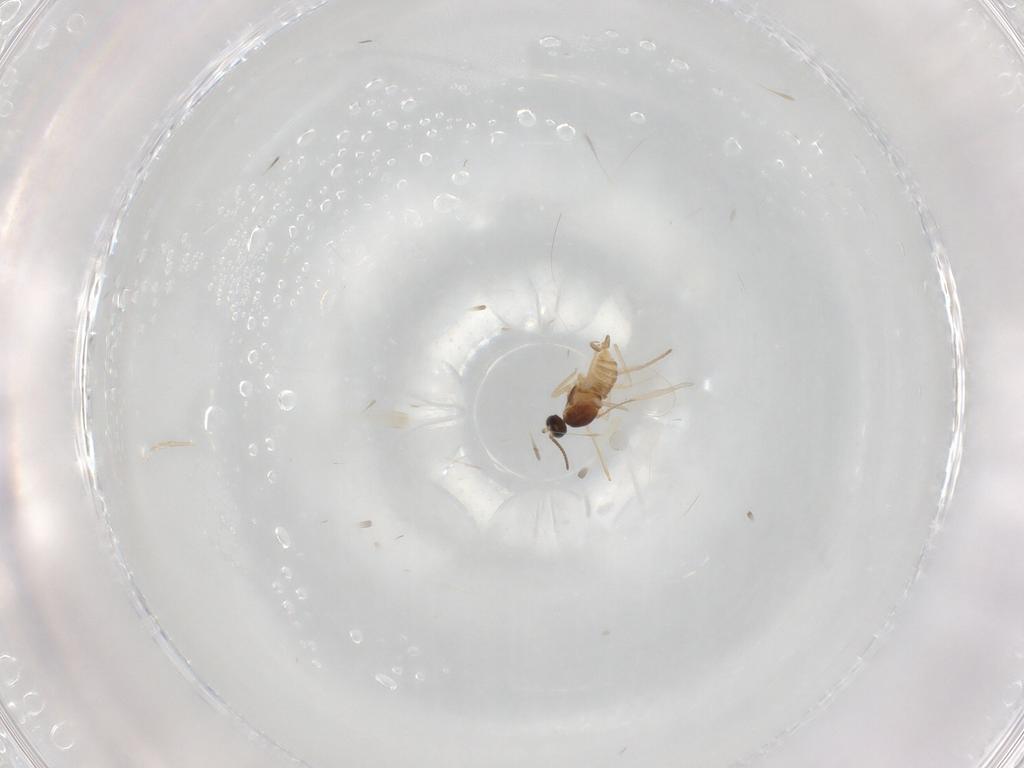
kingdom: Animalia
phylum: Arthropoda
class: Insecta
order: Diptera
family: Cecidomyiidae
